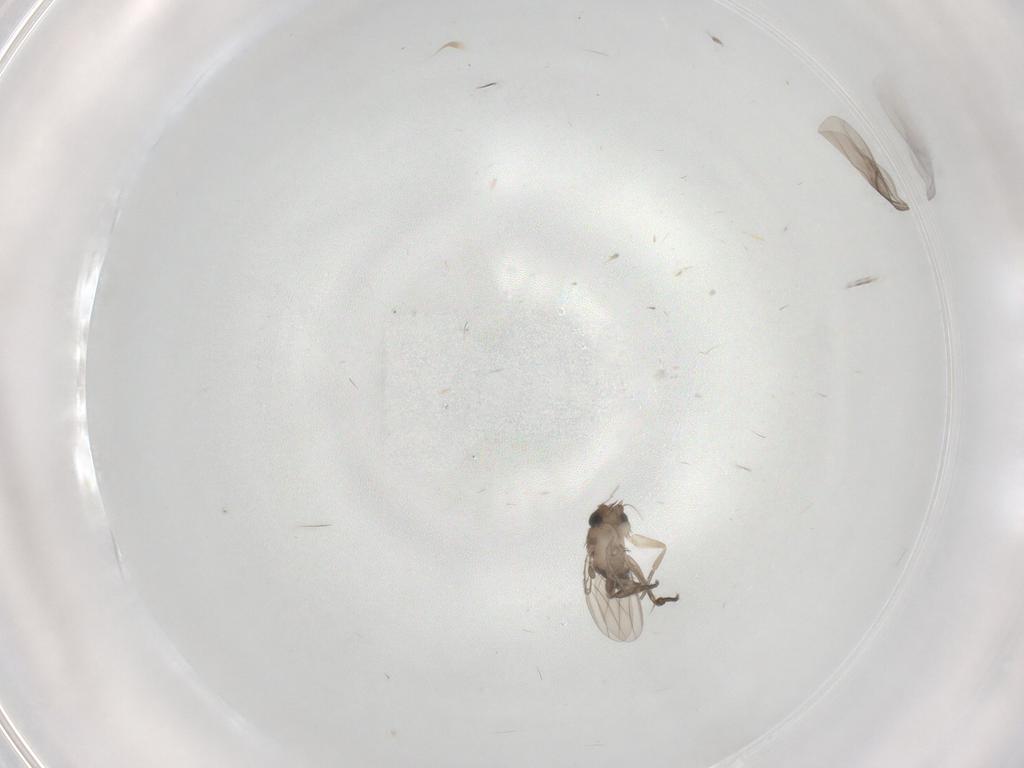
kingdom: Animalia
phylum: Arthropoda
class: Insecta
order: Diptera
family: Phoridae
